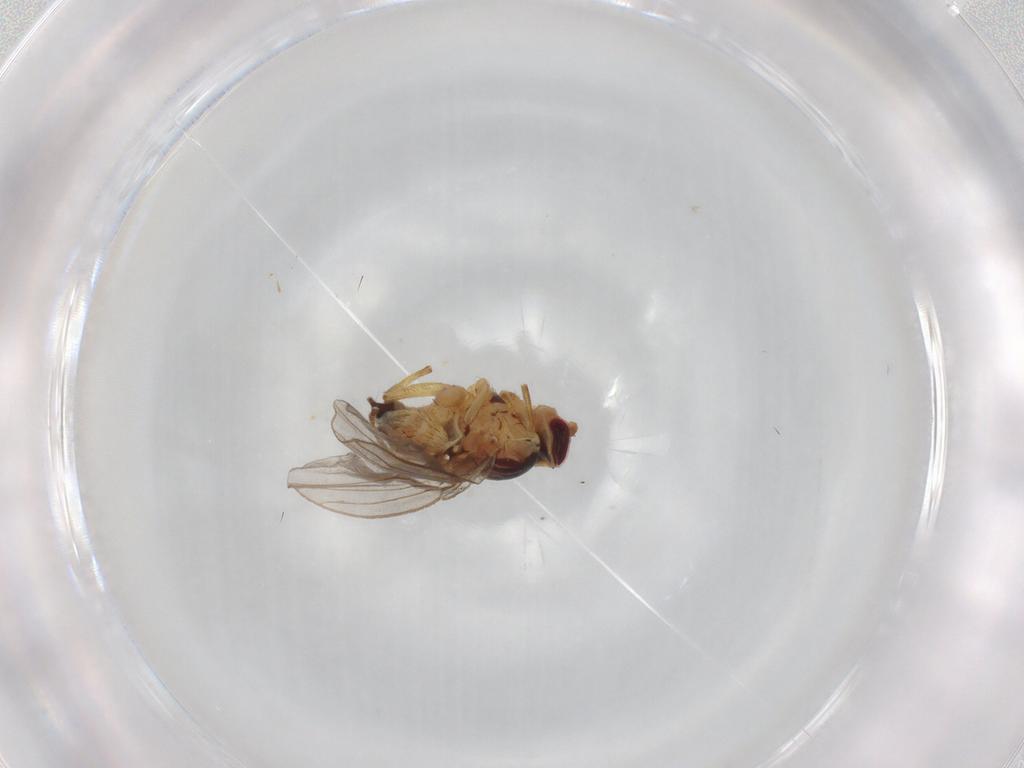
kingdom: Animalia
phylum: Arthropoda
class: Insecta
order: Diptera
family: Agromyzidae
